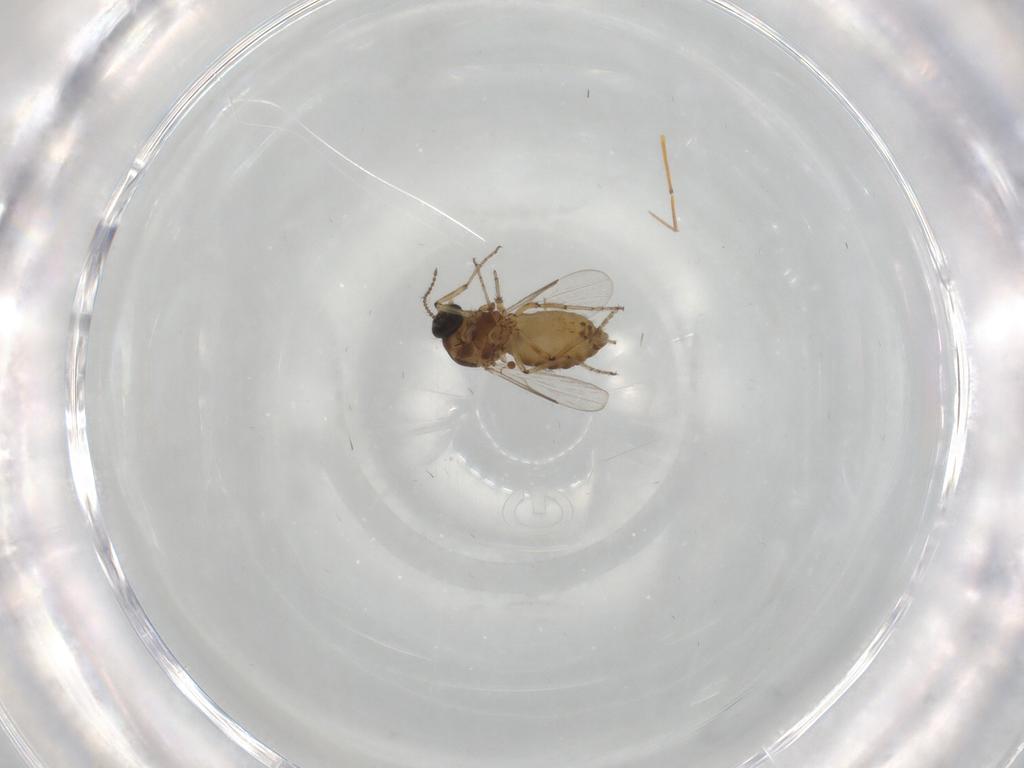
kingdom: Animalia
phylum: Arthropoda
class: Insecta
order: Diptera
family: Ceratopogonidae
